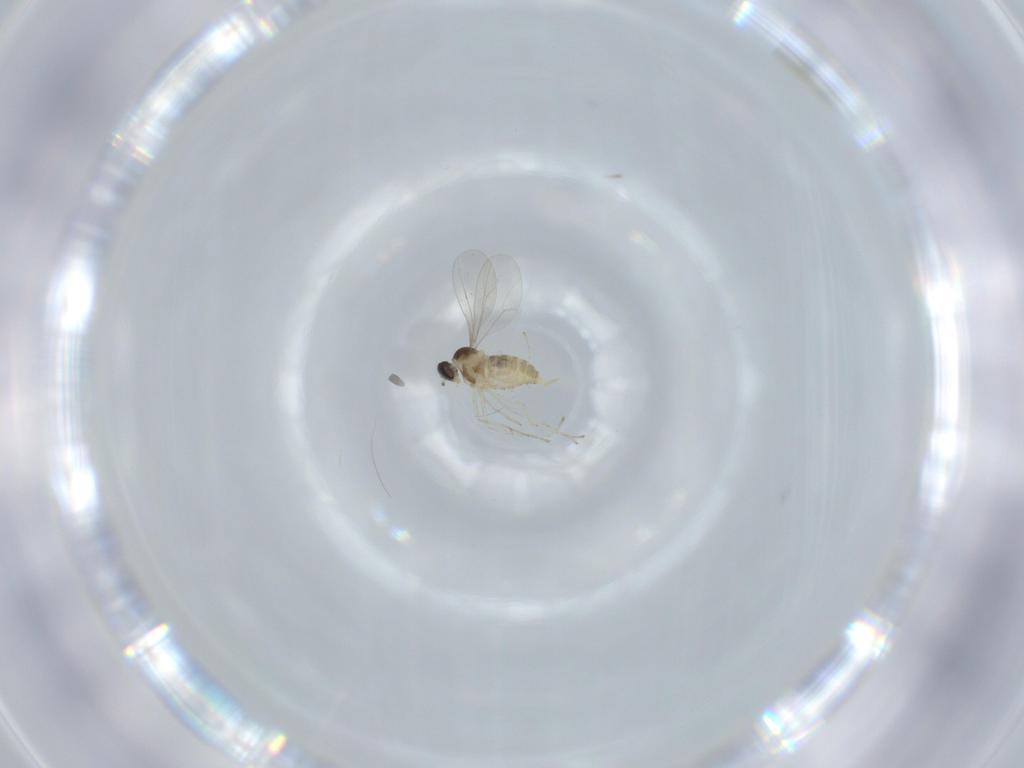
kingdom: Animalia
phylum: Arthropoda
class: Insecta
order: Diptera
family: Cecidomyiidae
